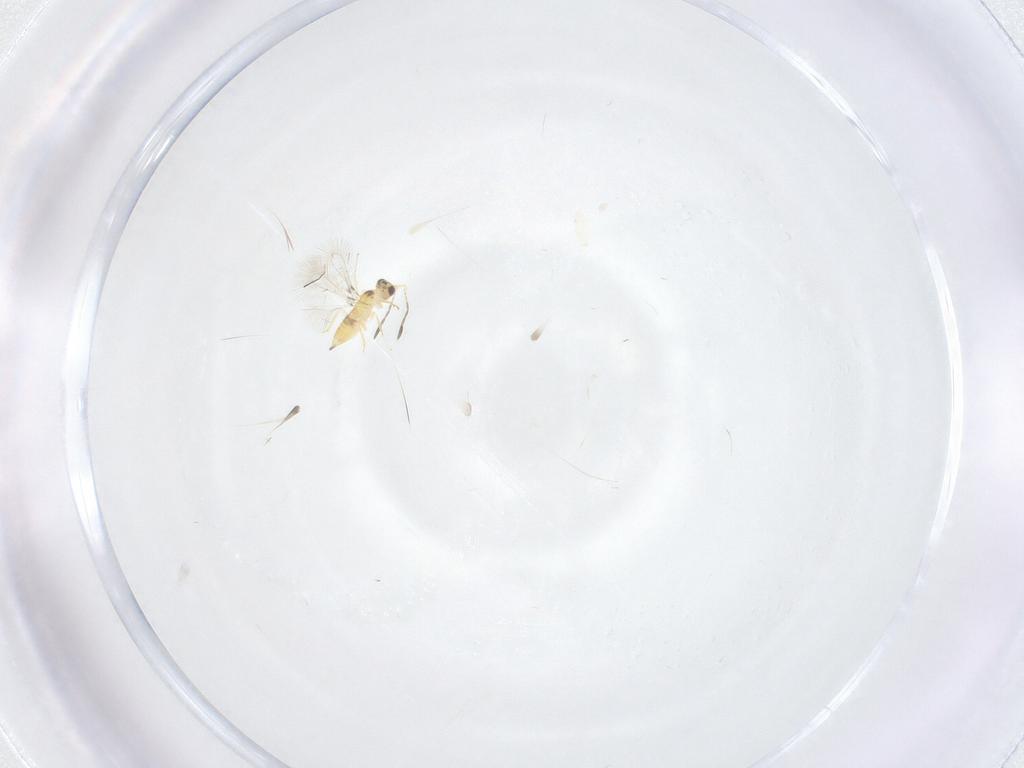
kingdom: Animalia
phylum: Arthropoda
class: Insecta
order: Hymenoptera
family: Mymaridae
